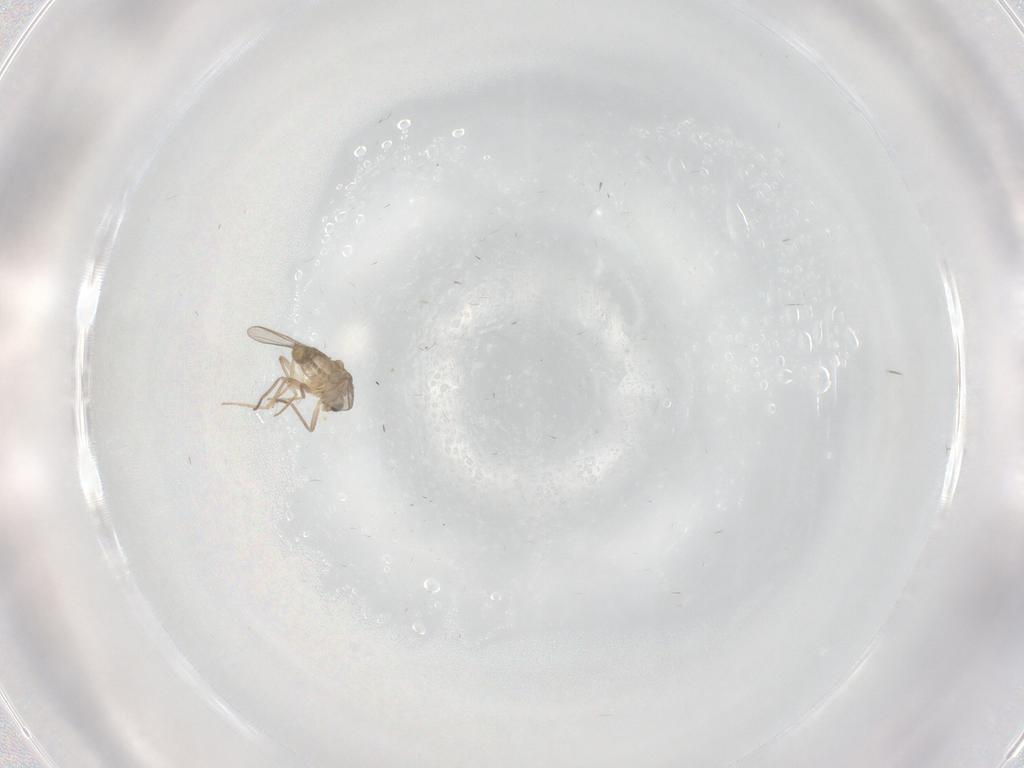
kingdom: Animalia
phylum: Arthropoda
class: Insecta
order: Diptera
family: Chironomidae
